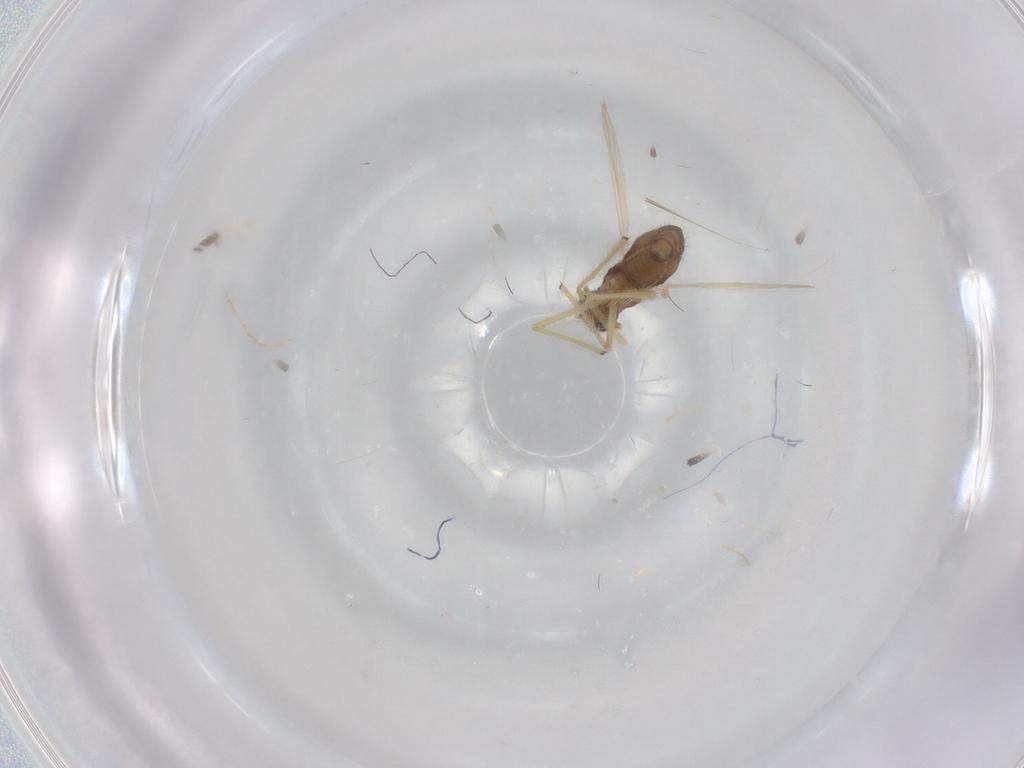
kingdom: Animalia
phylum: Arthropoda
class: Insecta
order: Diptera
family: Chironomidae
